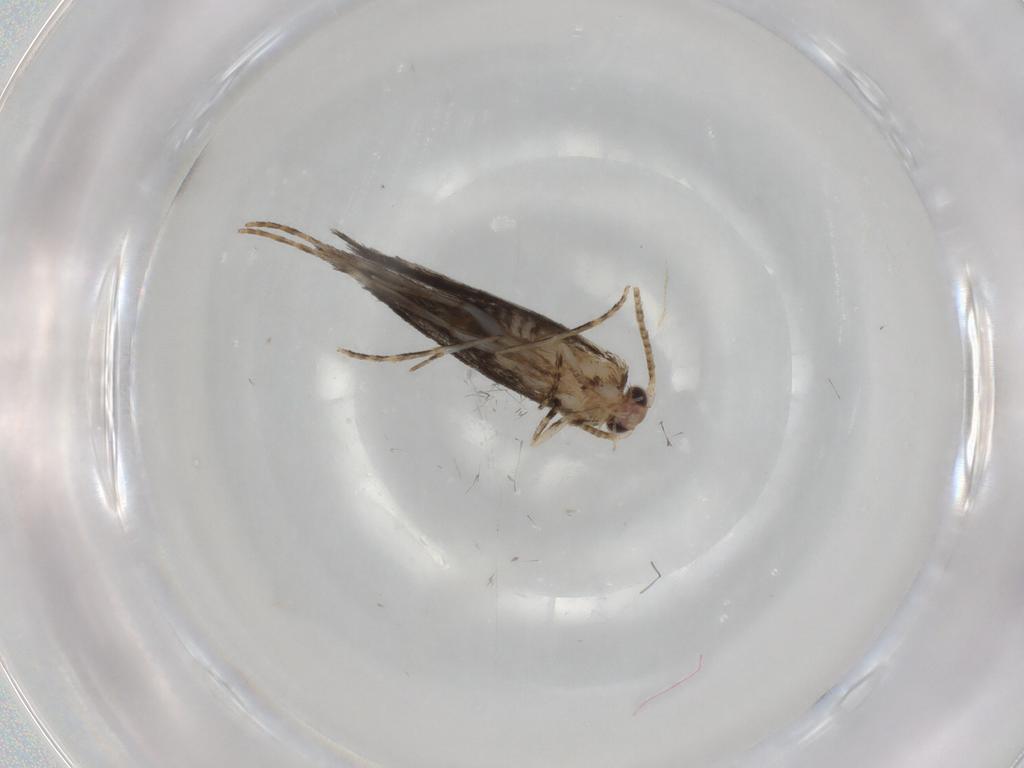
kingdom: Animalia
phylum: Arthropoda
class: Insecta
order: Lepidoptera
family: Tineidae
